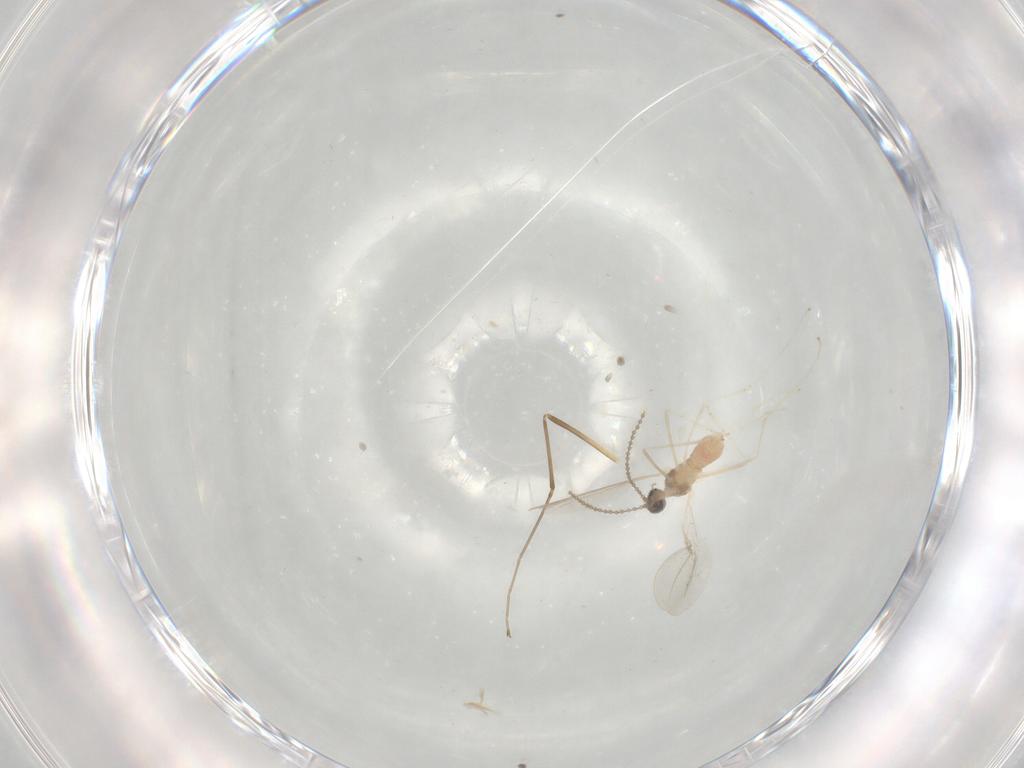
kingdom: Animalia
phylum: Arthropoda
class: Insecta
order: Diptera
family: Cecidomyiidae
